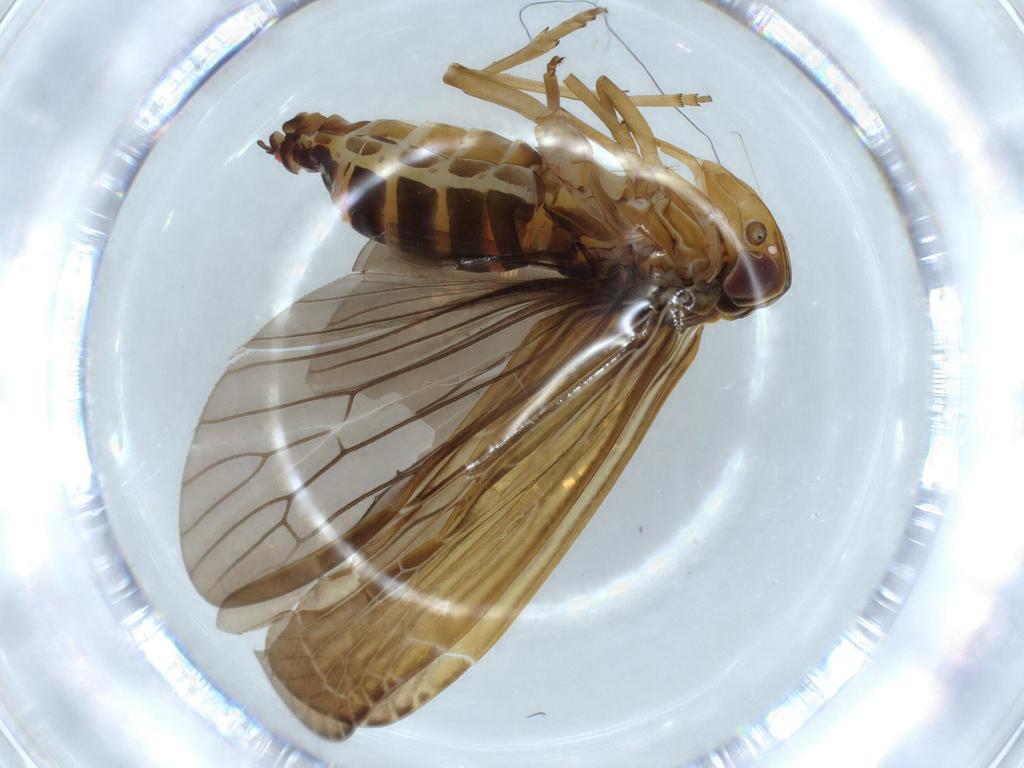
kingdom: Animalia
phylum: Arthropoda
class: Insecta
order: Hemiptera
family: Achilidae
